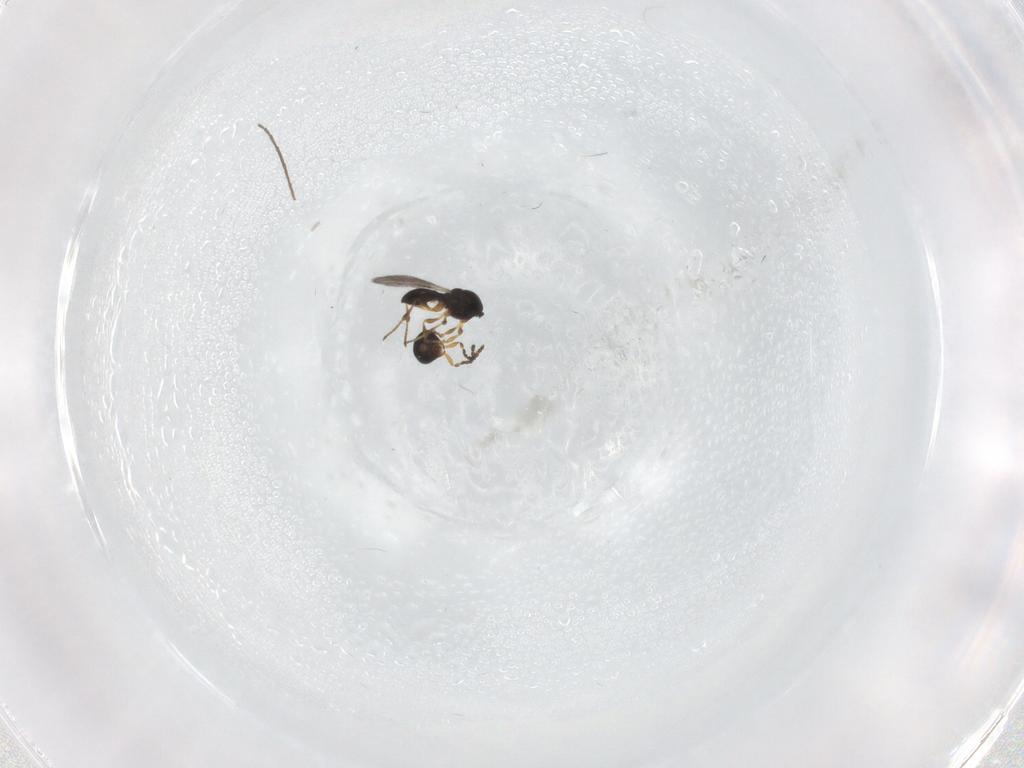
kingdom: Animalia
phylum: Arthropoda
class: Insecta
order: Hymenoptera
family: Platygastridae
